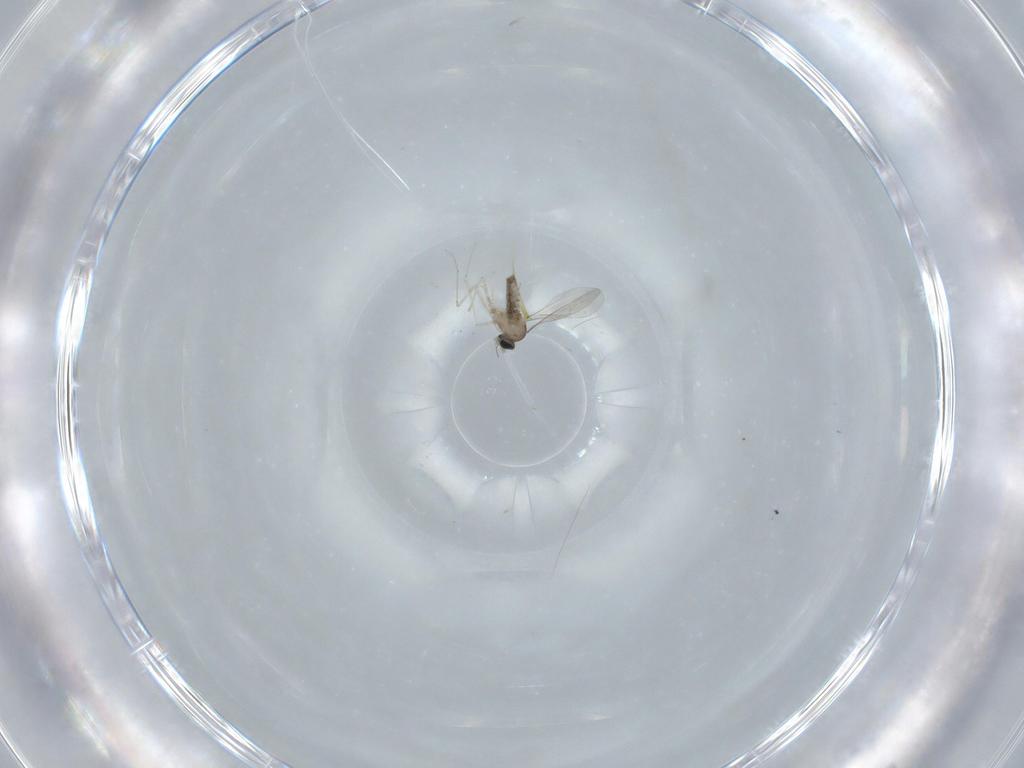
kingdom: Animalia
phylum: Arthropoda
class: Insecta
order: Diptera
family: Cecidomyiidae
